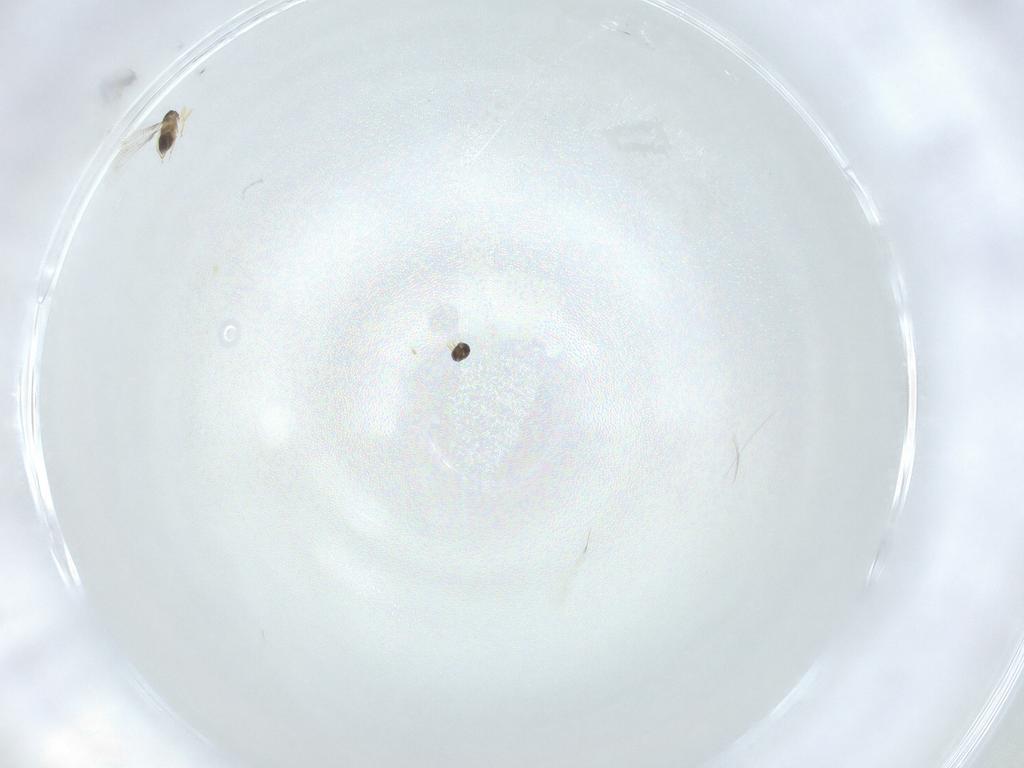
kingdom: Animalia
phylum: Arthropoda
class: Insecta
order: Hymenoptera
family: Mymaridae
